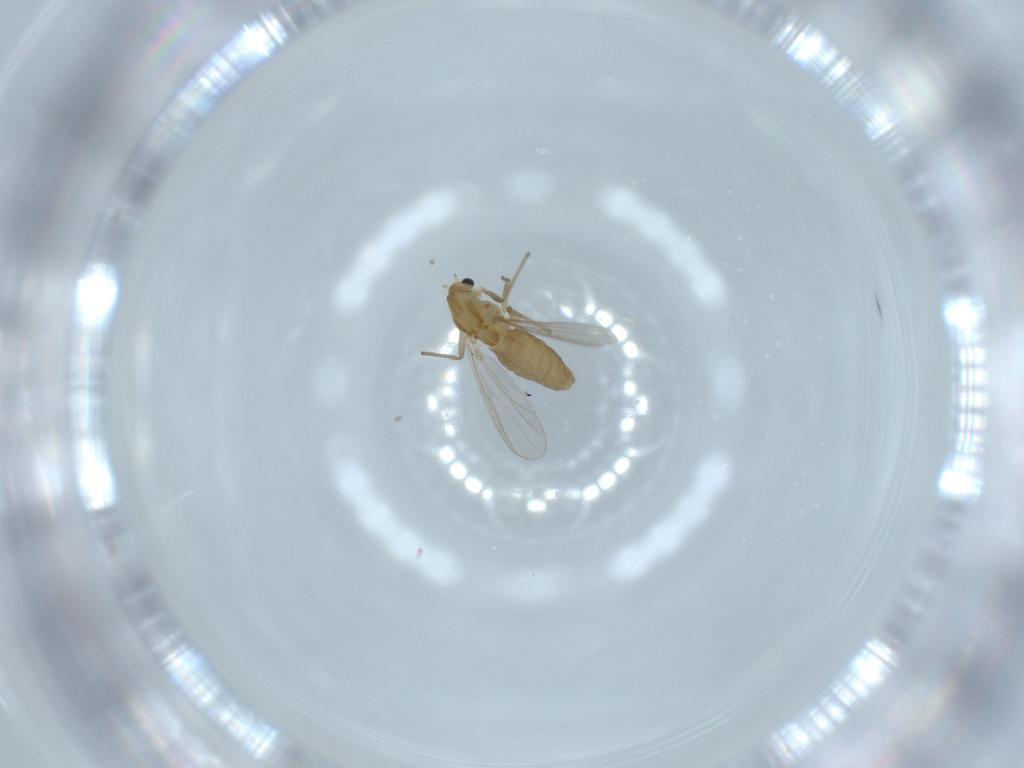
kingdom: Animalia
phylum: Arthropoda
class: Insecta
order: Diptera
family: Chironomidae
